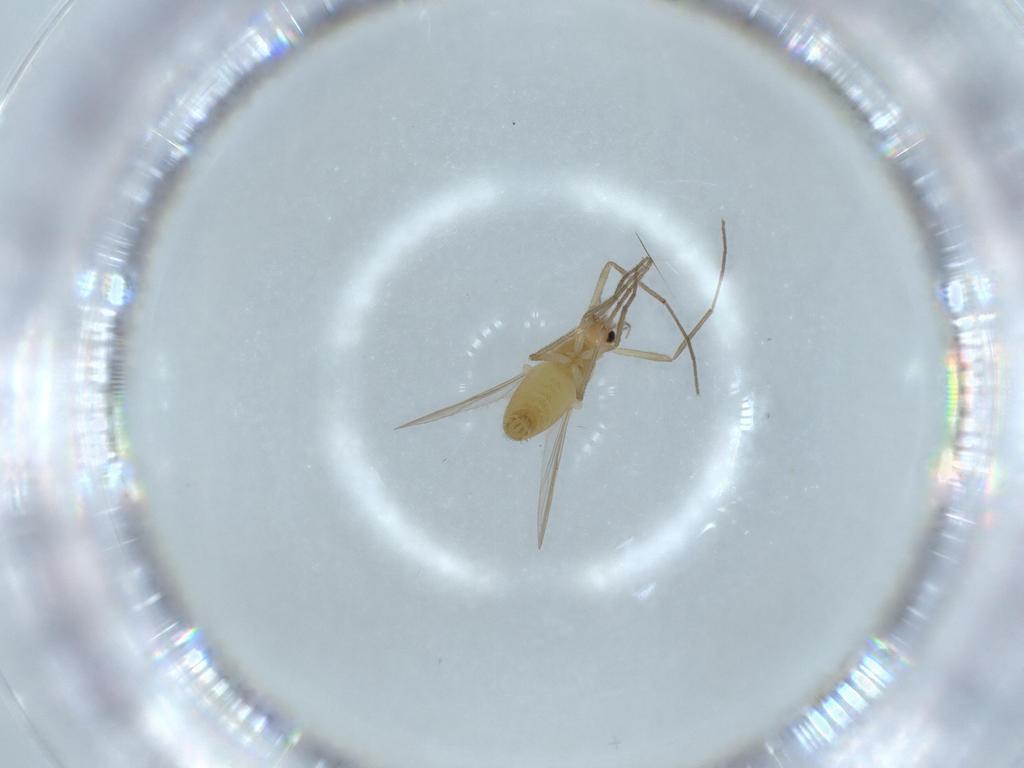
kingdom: Animalia
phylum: Arthropoda
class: Insecta
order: Diptera
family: Chironomidae
